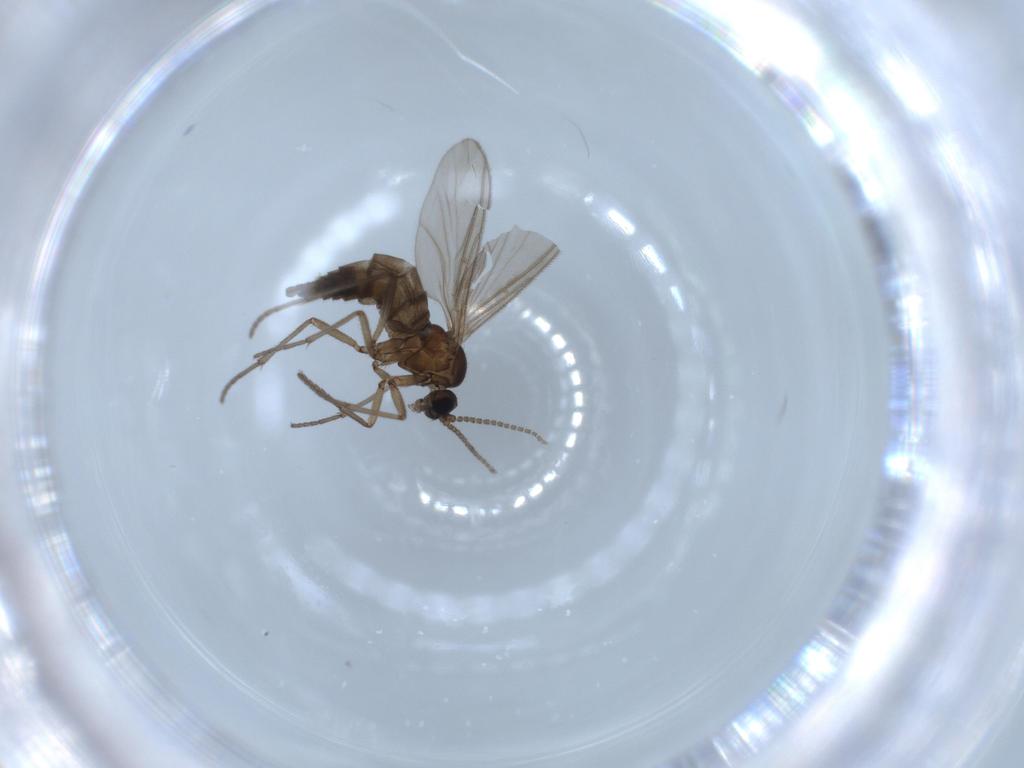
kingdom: Animalia
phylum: Arthropoda
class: Insecta
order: Diptera
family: Sciaridae
